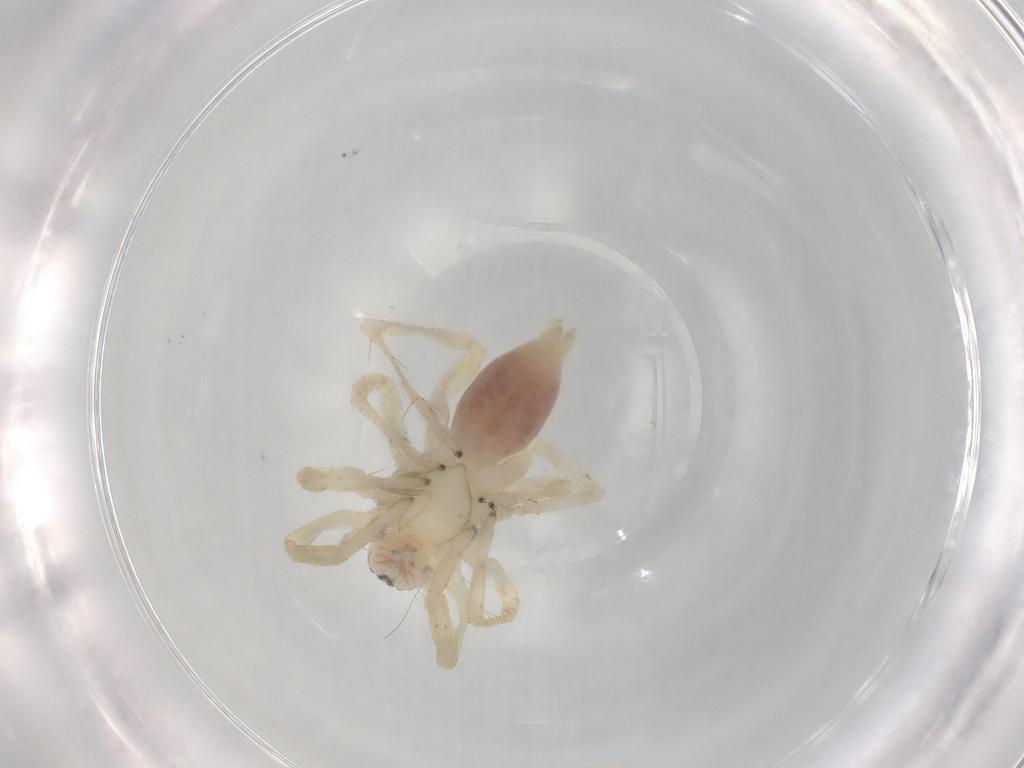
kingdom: Animalia
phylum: Arthropoda
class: Arachnida
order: Araneae
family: Clubionidae
